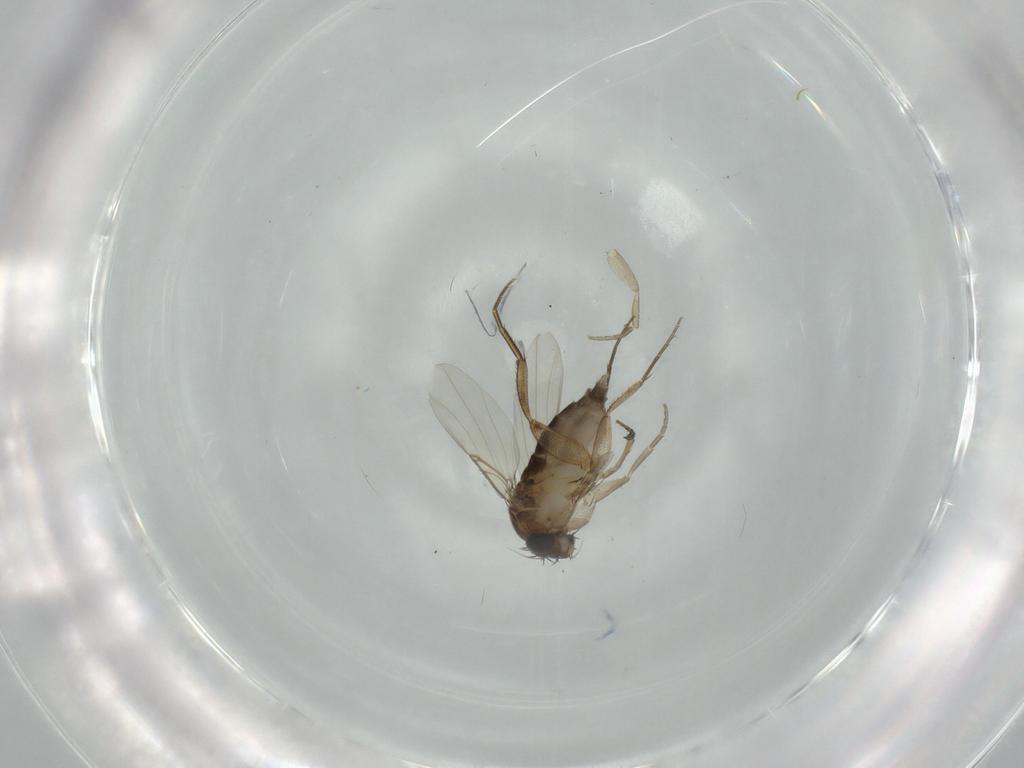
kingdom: Animalia
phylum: Arthropoda
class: Insecta
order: Diptera
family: Phoridae
